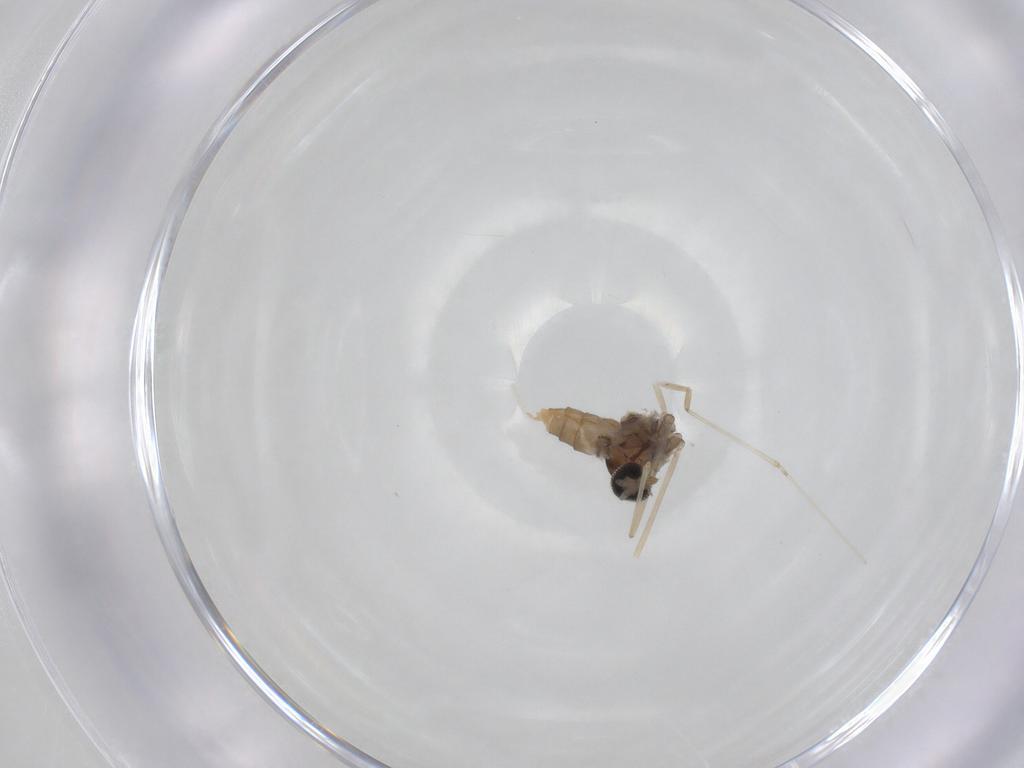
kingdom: Animalia
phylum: Arthropoda
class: Insecta
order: Diptera
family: Cecidomyiidae
